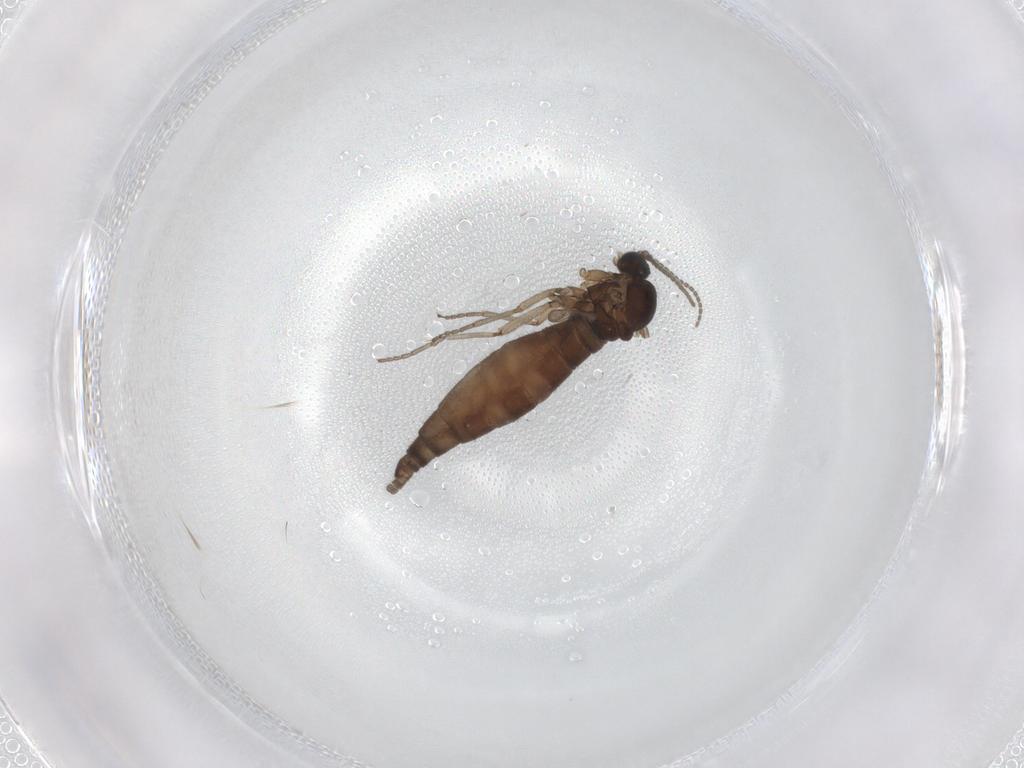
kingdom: Animalia
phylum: Arthropoda
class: Insecta
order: Diptera
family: Sciaridae
